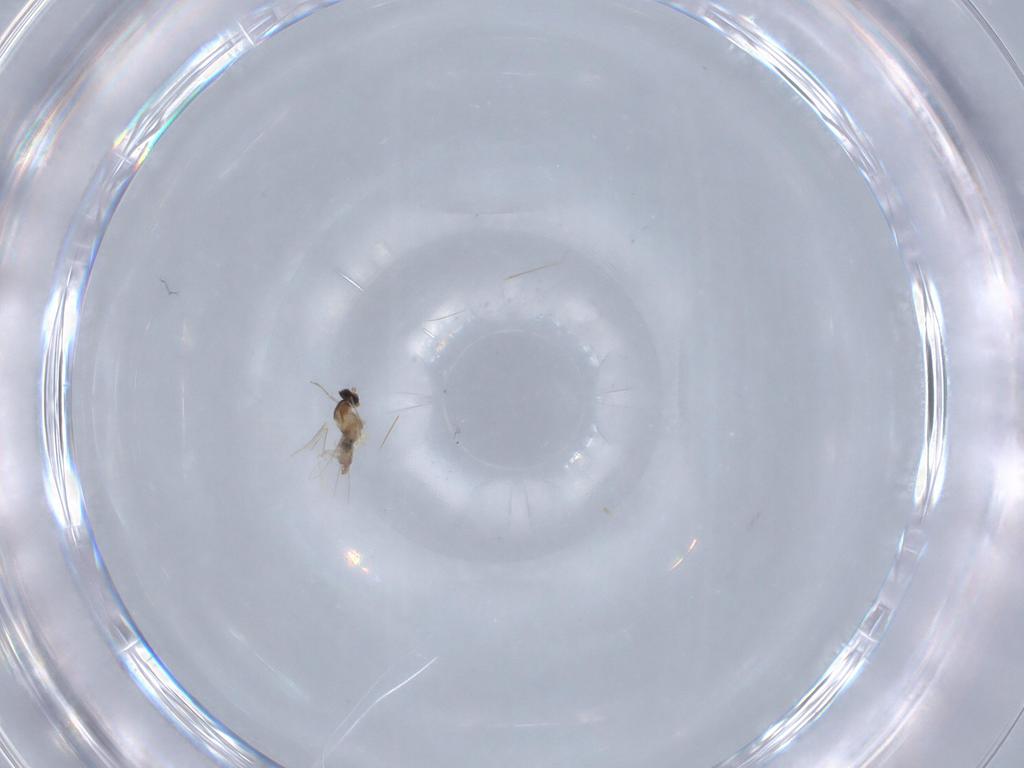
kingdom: Animalia
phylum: Arthropoda
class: Insecta
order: Diptera
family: Cecidomyiidae
